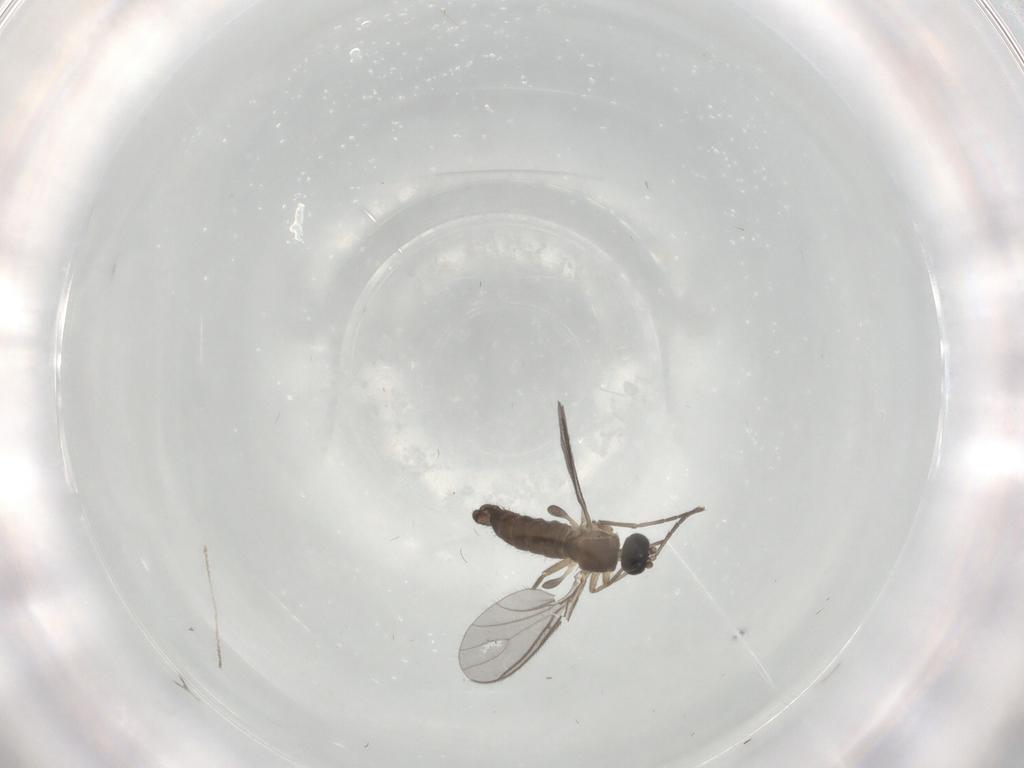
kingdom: Animalia
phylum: Arthropoda
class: Insecta
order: Diptera
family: Sciaridae
